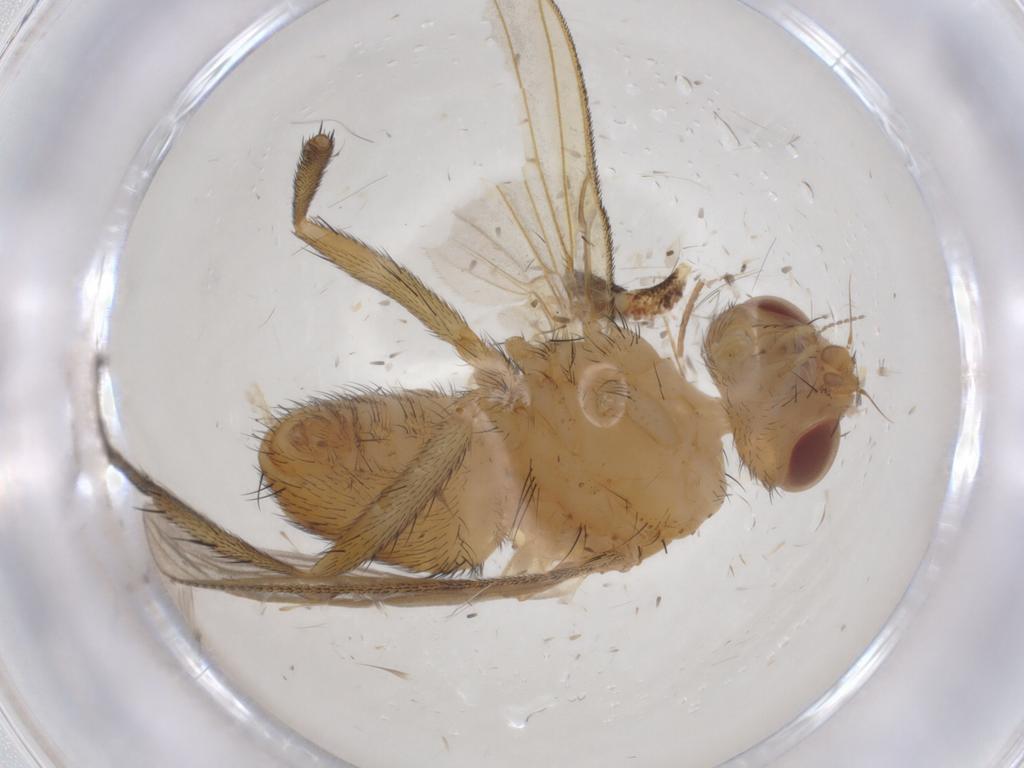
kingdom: Animalia
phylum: Arthropoda
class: Insecta
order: Diptera
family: Tachinidae
